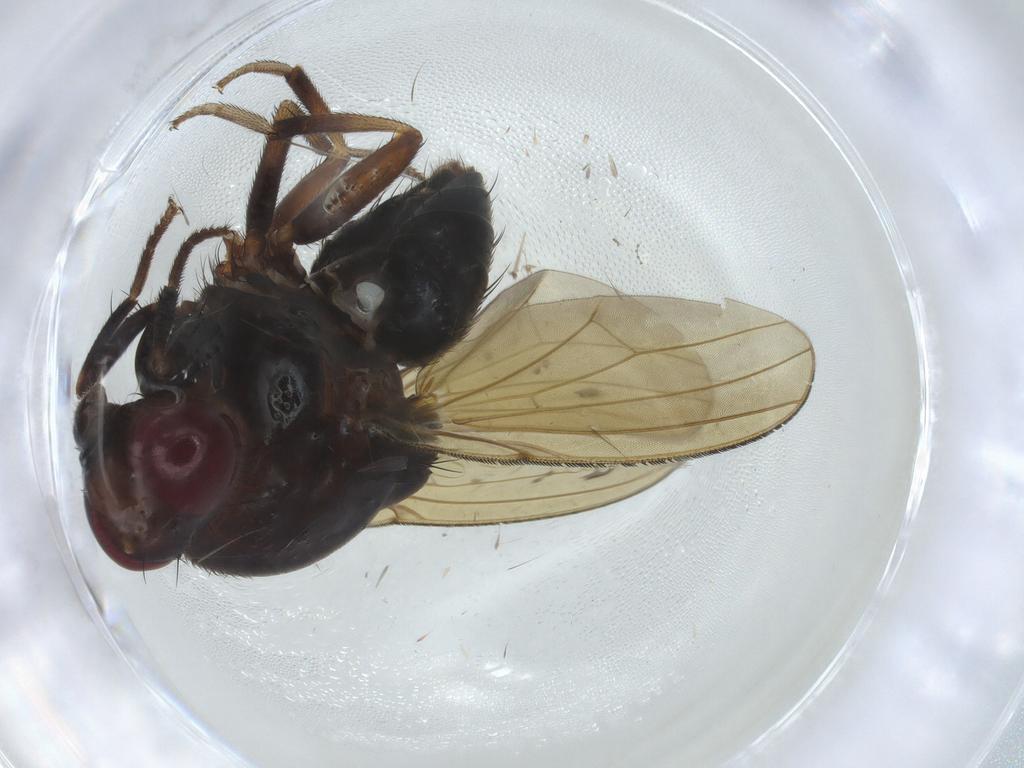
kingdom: Animalia
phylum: Arthropoda
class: Insecta
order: Diptera
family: Lauxaniidae
